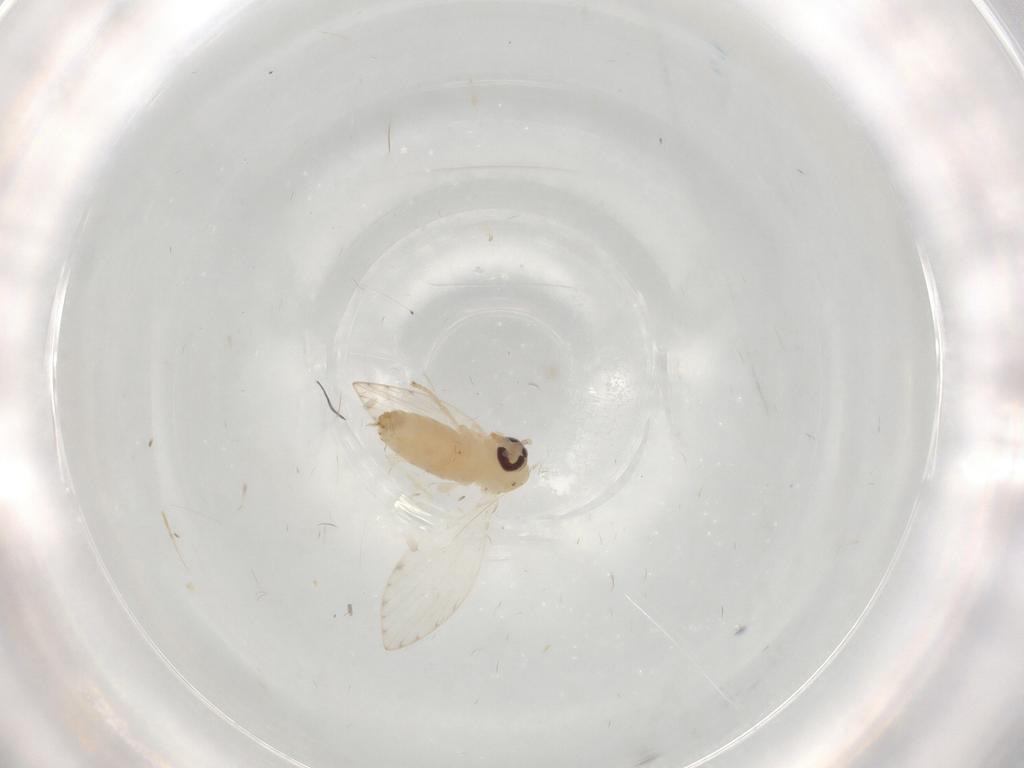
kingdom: Animalia
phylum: Arthropoda
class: Insecta
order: Diptera
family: Psychodidae
